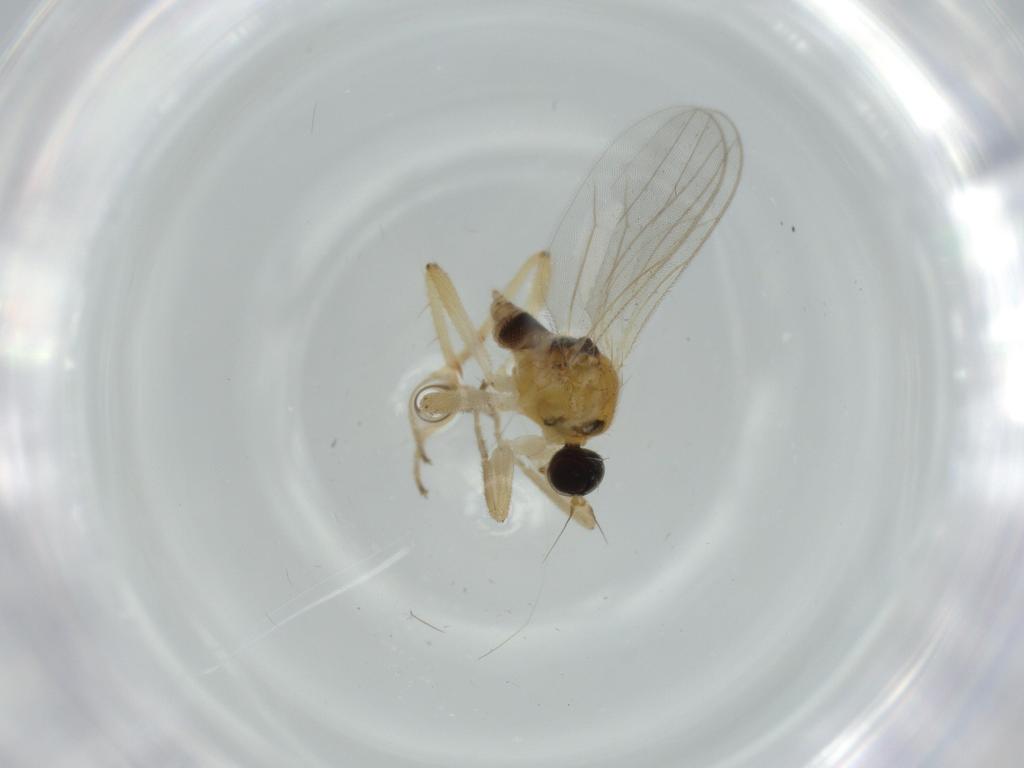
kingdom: Animalia
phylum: Arthropoda
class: Insecta
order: Diptera
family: Hybotidae
